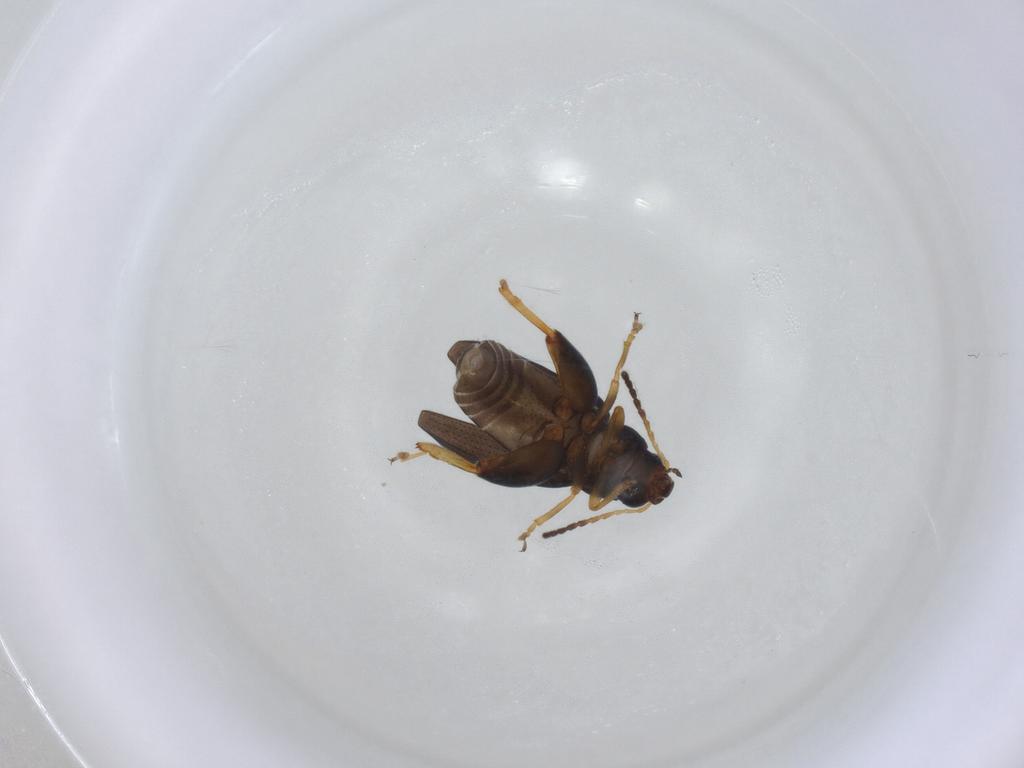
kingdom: Animalia
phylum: Arthropoda
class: Insecta
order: Coleoptera
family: Chrysomelidae
